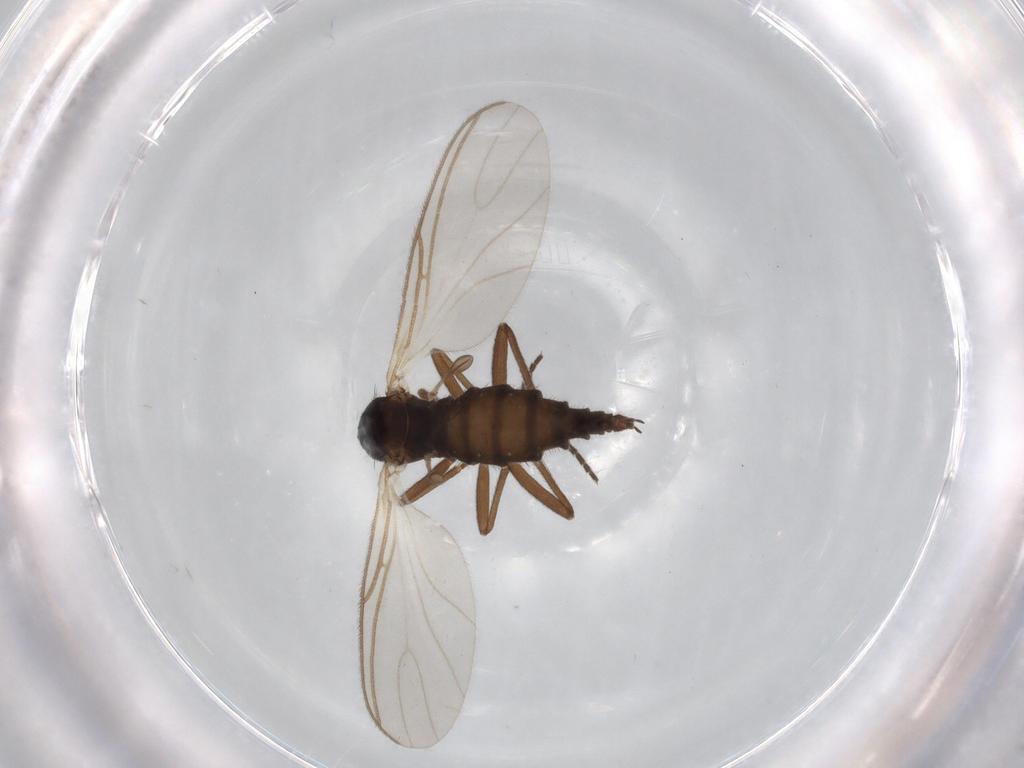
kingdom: Animalia
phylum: Arthropoda
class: Insecta
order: Diptera
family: Sciaridae
